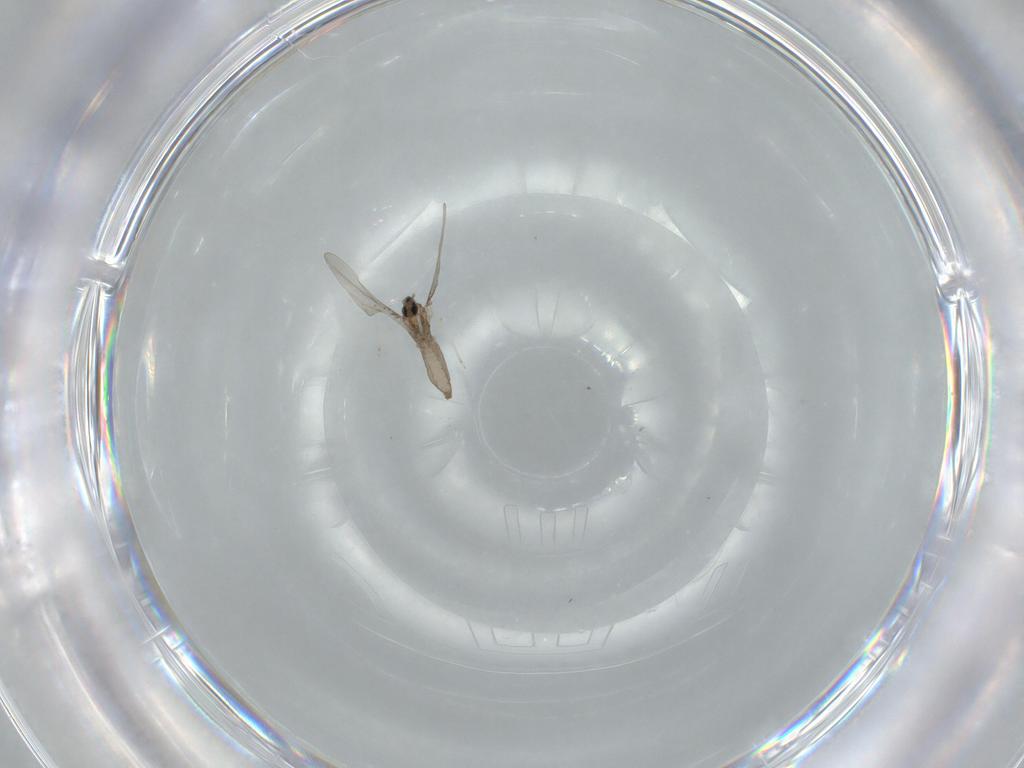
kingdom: Animalia
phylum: Arthropoda
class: Insecta
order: Diptera
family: Cecidomyiidae
